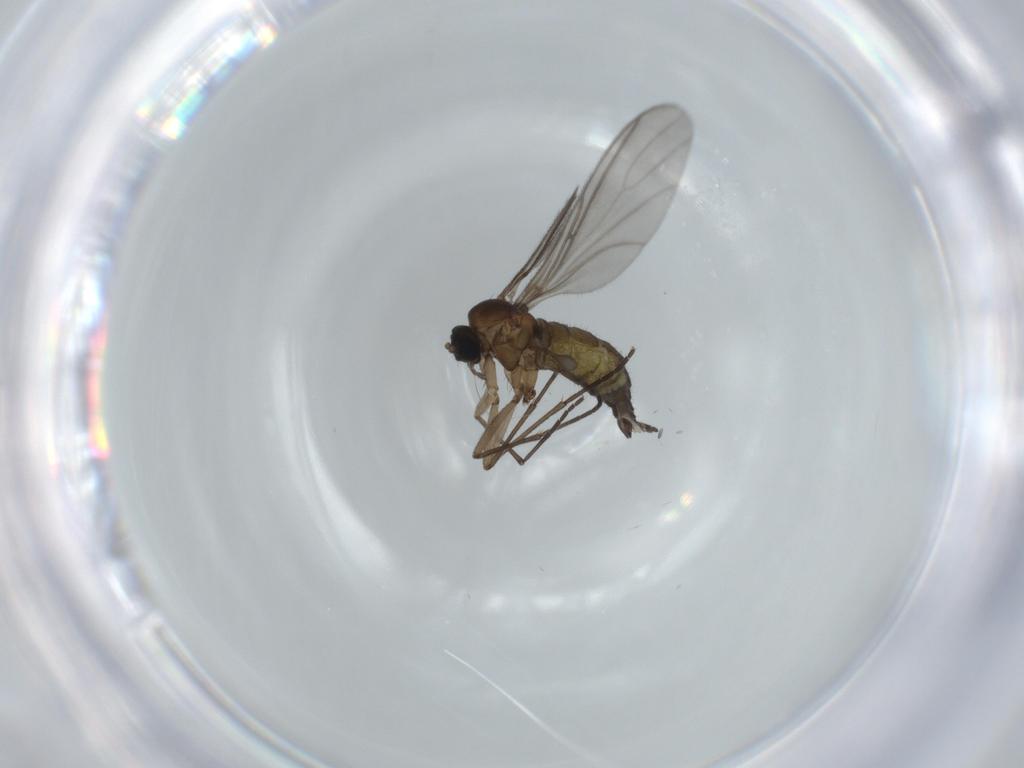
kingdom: Animalia
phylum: Arthropoda
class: Insecta
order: Diptera
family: Sciaridae
